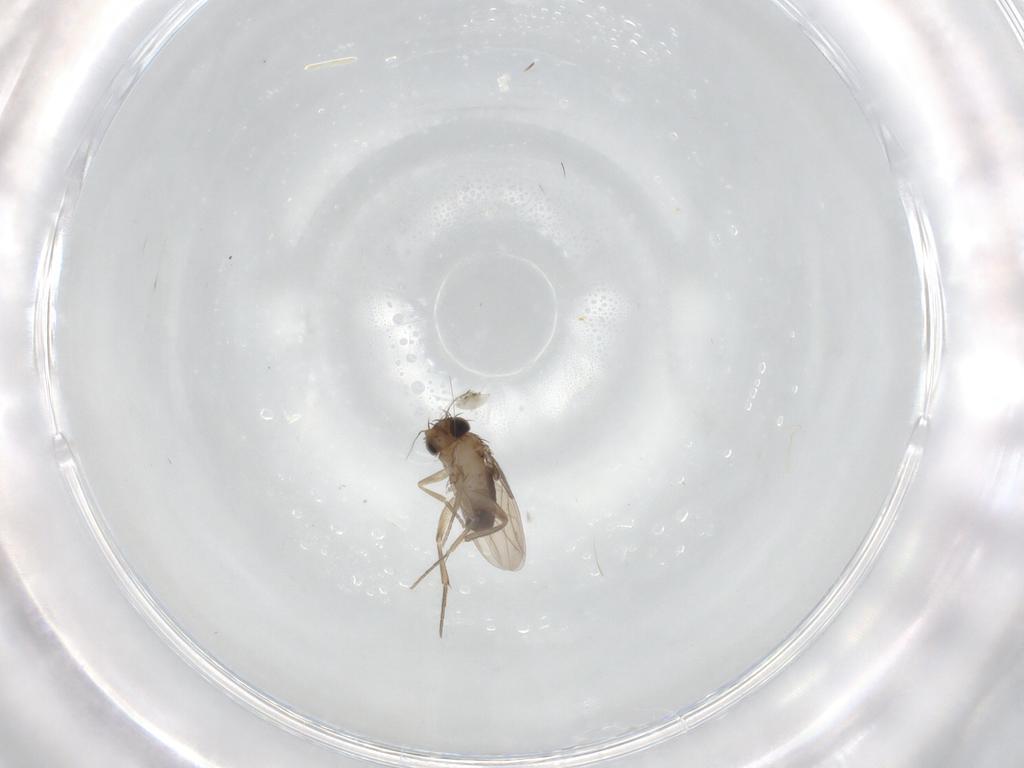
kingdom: Animalia
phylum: Arthropoda
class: Insecta
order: Diptera
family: Phoridae
